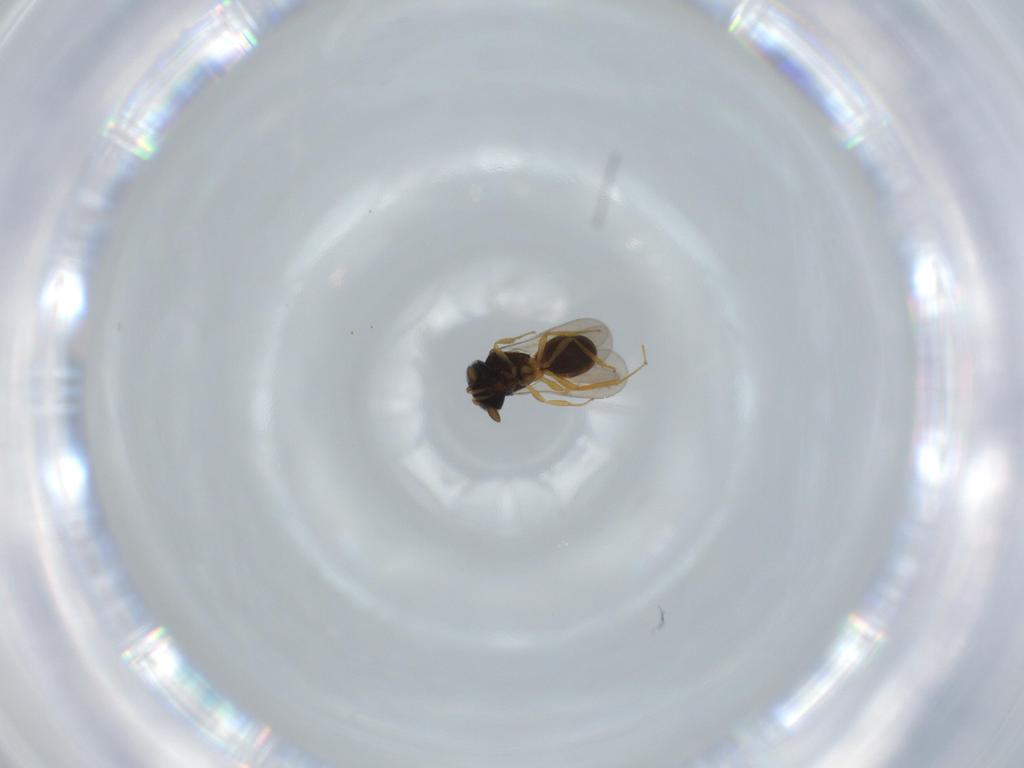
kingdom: Animalia
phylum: Arthropoda
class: Insecta
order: Hymenoptera
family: Scelionidae
